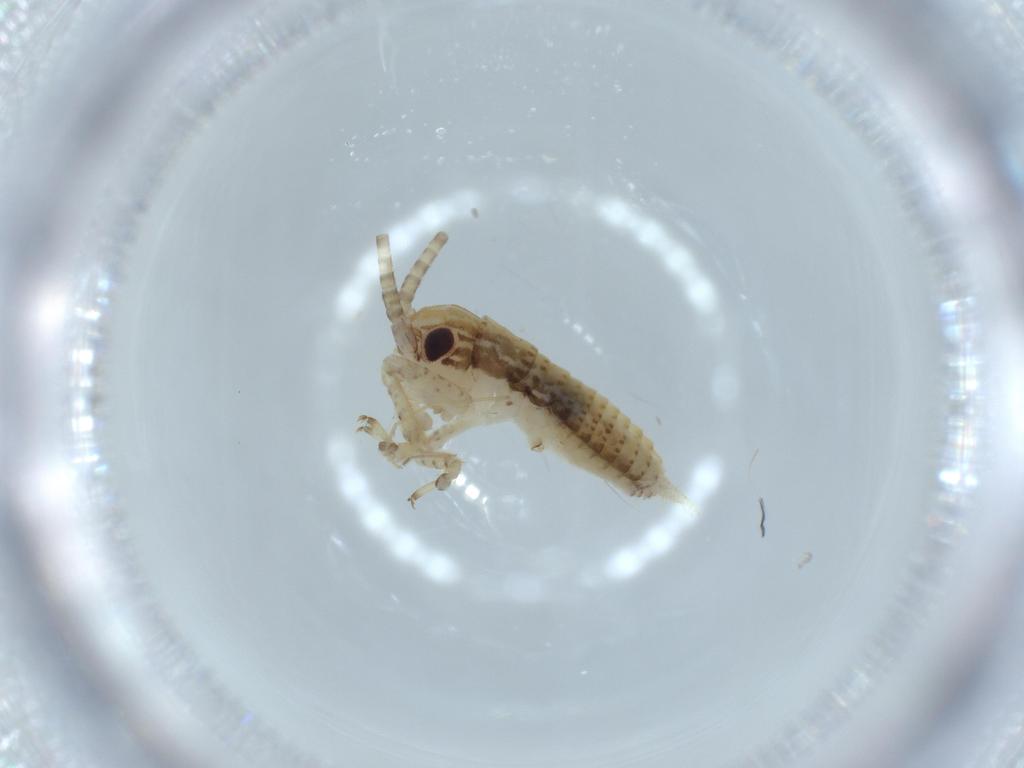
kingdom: Animalia
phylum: Arthropoda
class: Insecta
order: Orthoptera
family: Gryllidae
